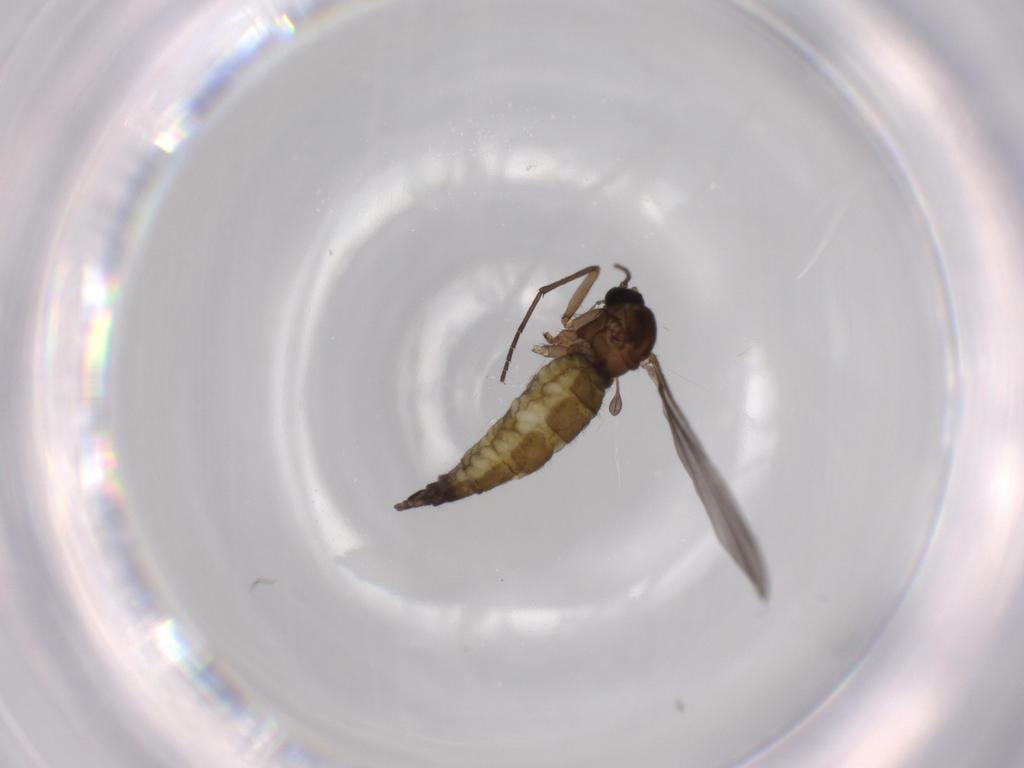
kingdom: Animalia
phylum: Arthropoda
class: Insecta
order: Diptera
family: Sciaridae
